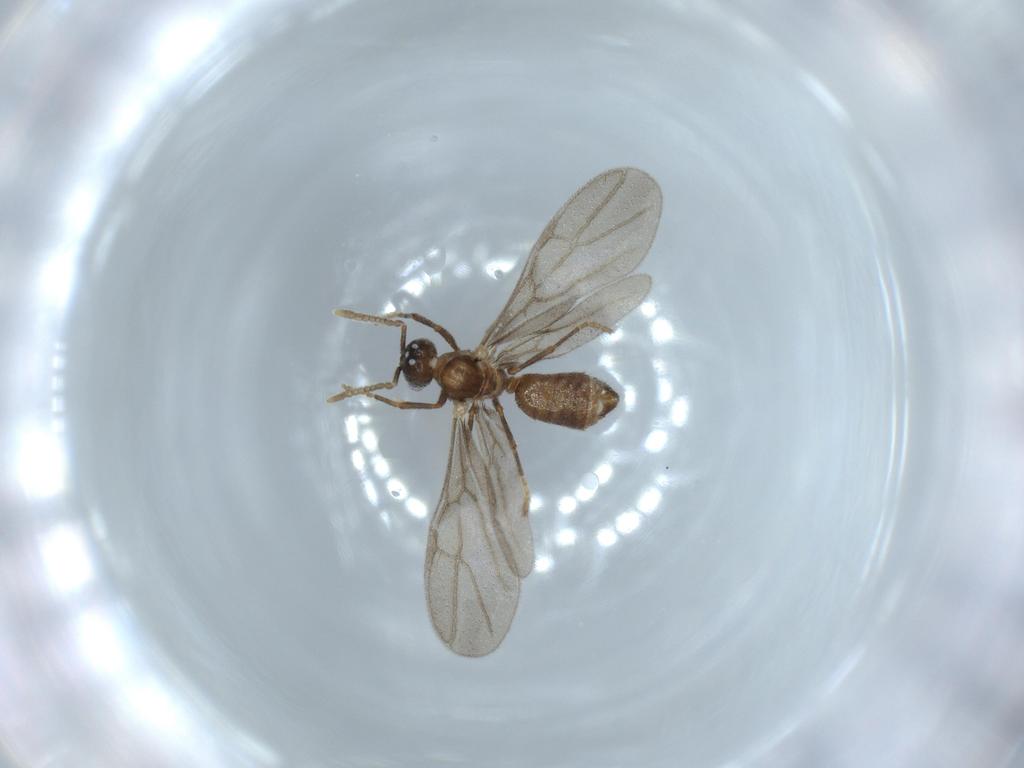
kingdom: Animalia
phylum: Arthropoda
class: Insecta
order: Hymenoptera
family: Formicidae
